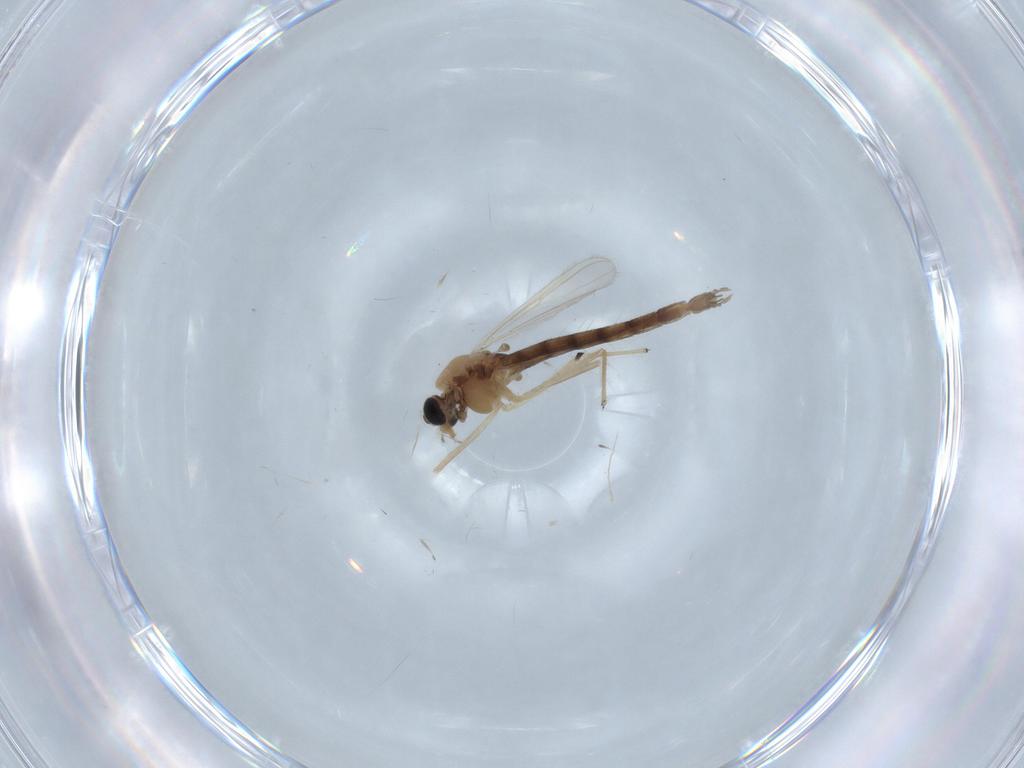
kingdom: Animalia
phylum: Arthropoda
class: Insecta
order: Diptera
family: Chironomidae
